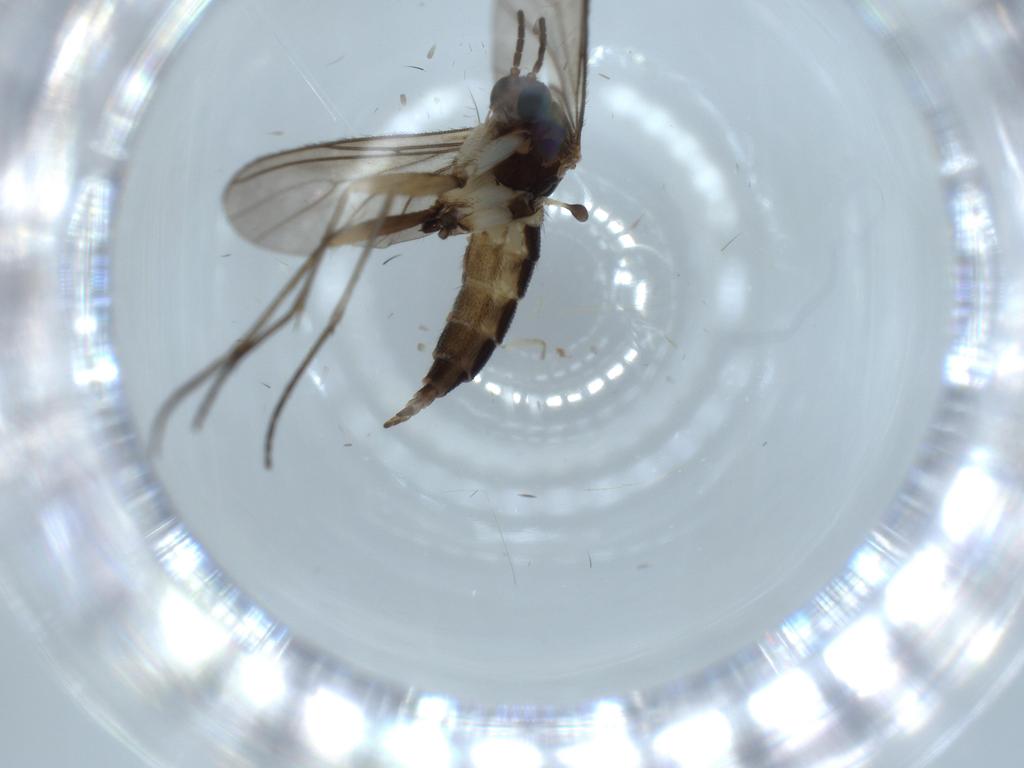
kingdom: Animalia
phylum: Arthropoda
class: Insecta
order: Diptera
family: Sciaridae
